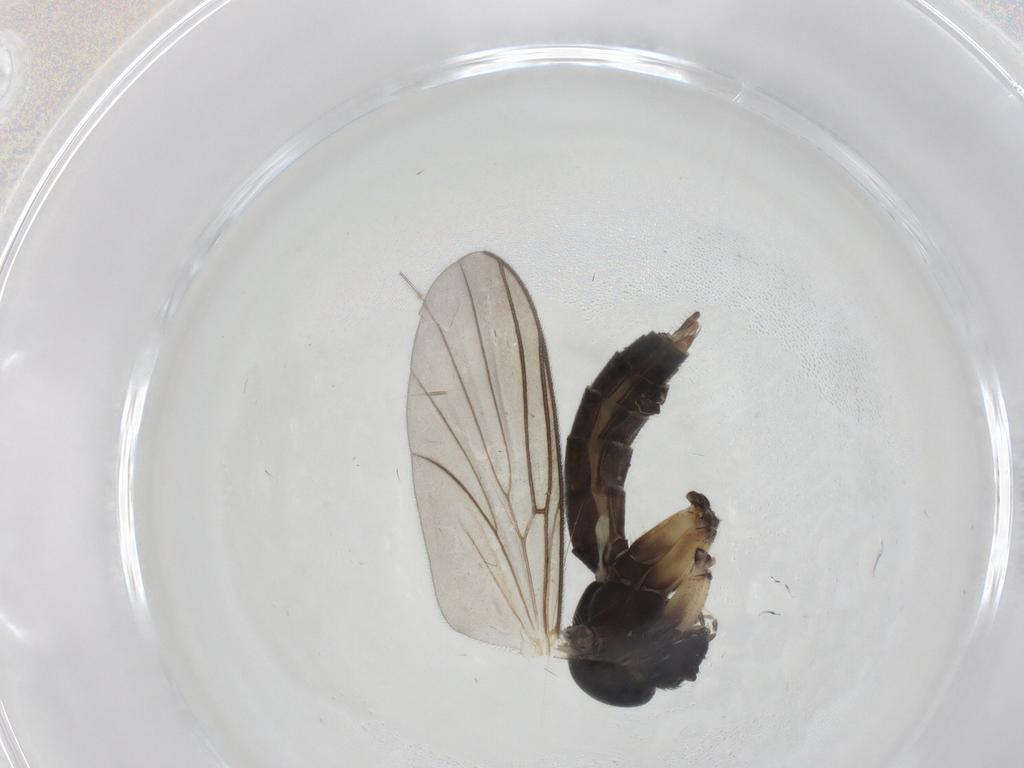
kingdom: Animalia
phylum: Arthropoda
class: Insecta
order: Diptera
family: Mycetophilidae
